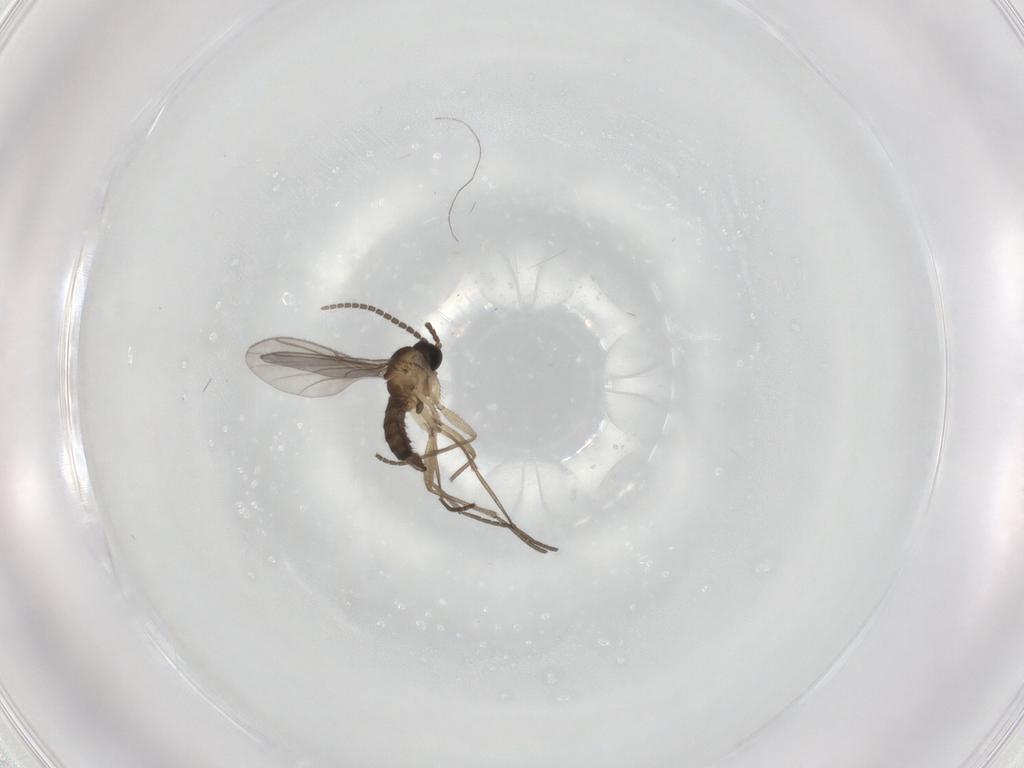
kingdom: Animalia
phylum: Arthropoda
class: Insecta
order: Diptera
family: Sciaridae
